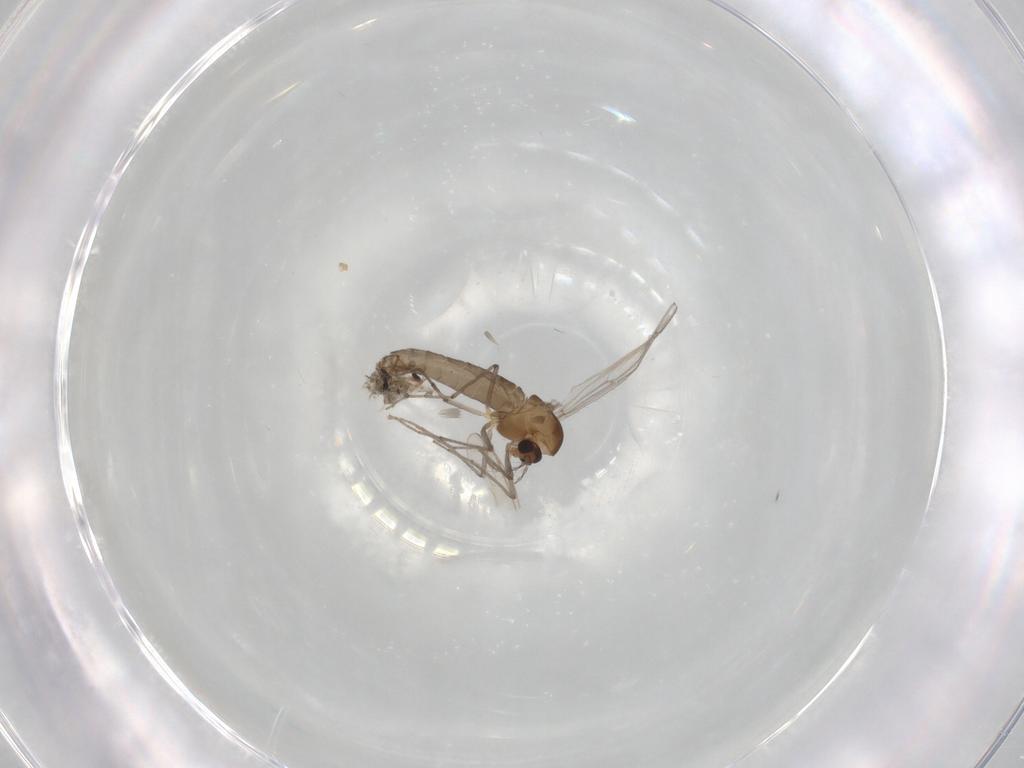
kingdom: Animalia
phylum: Arthropoda
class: Insecta
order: Diptera
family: Chironomidae
